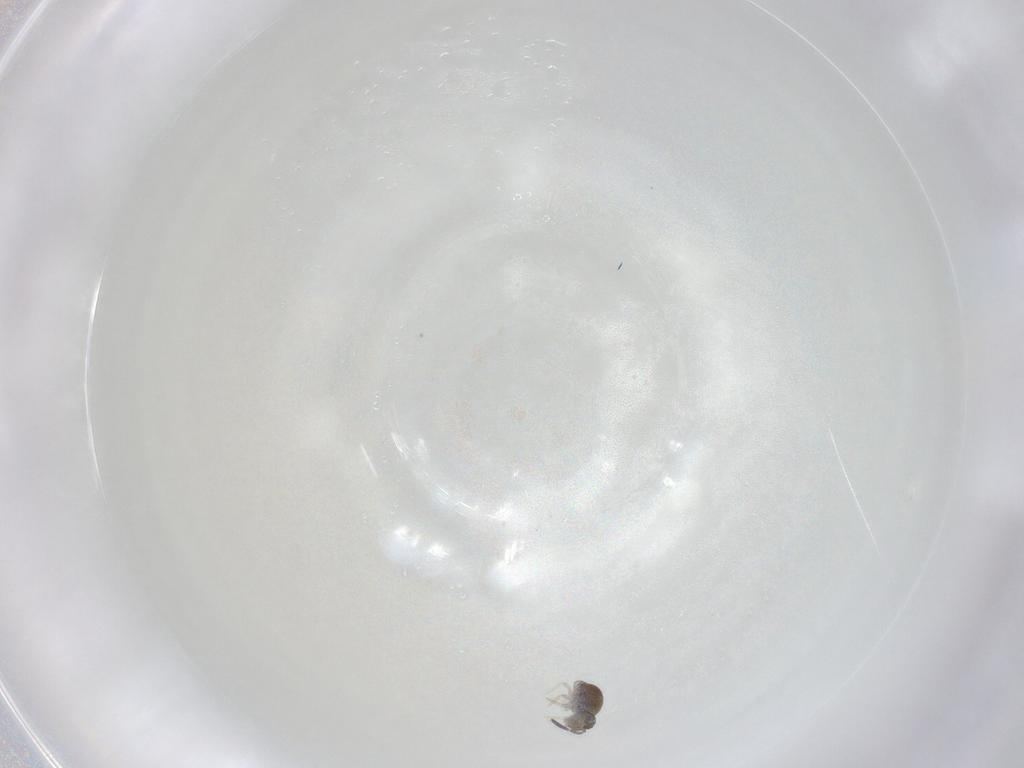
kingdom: Animalia
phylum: Arthropoda
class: Collembola
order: Symphypleona
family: Katiannidae
